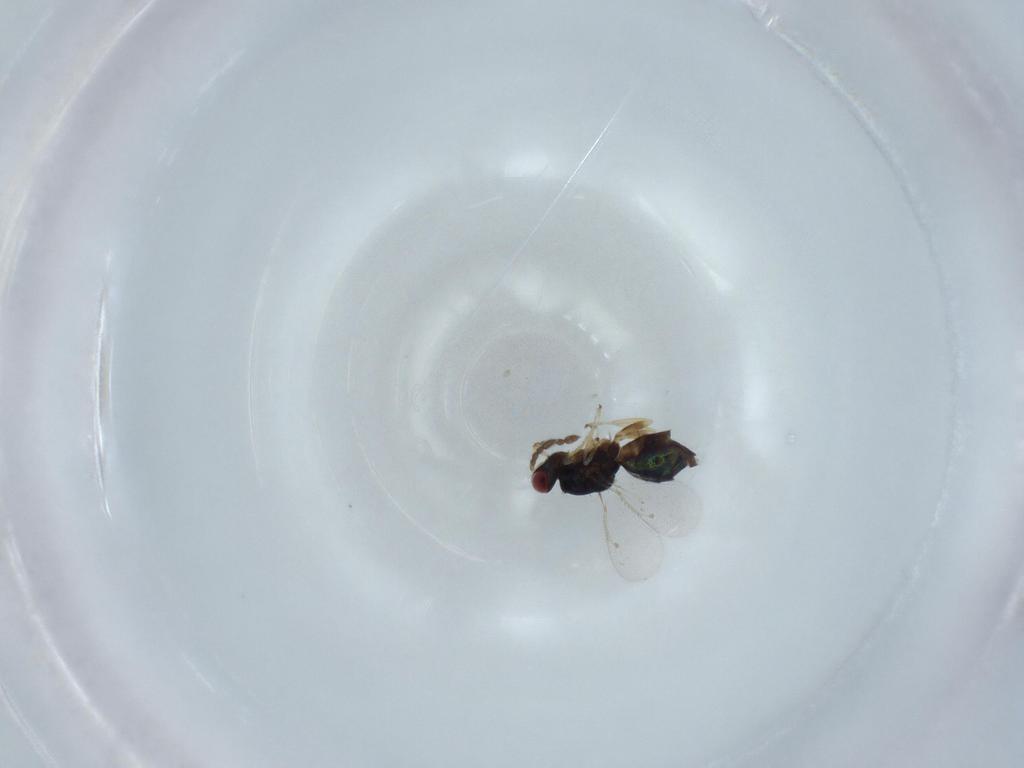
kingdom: Animalia
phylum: Arthropoda
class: Insecta
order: Hymenoptera
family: Eulophidae
